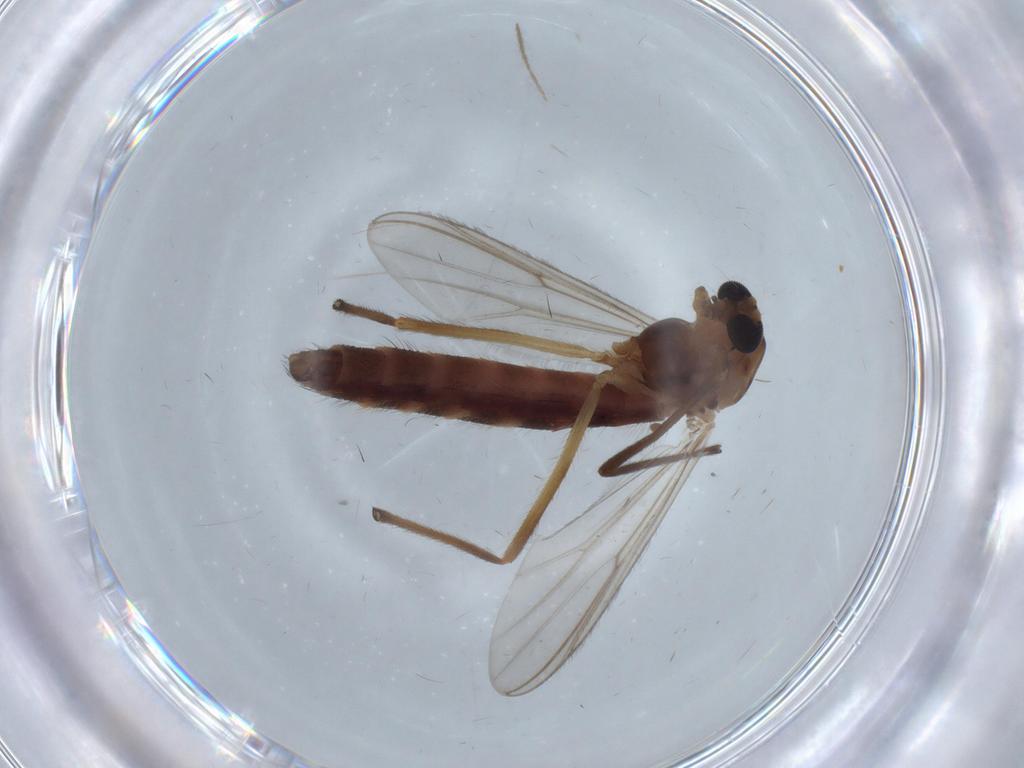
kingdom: Animalia
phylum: Arthropoda
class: Insecta
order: Diptera
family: Chironomidae
